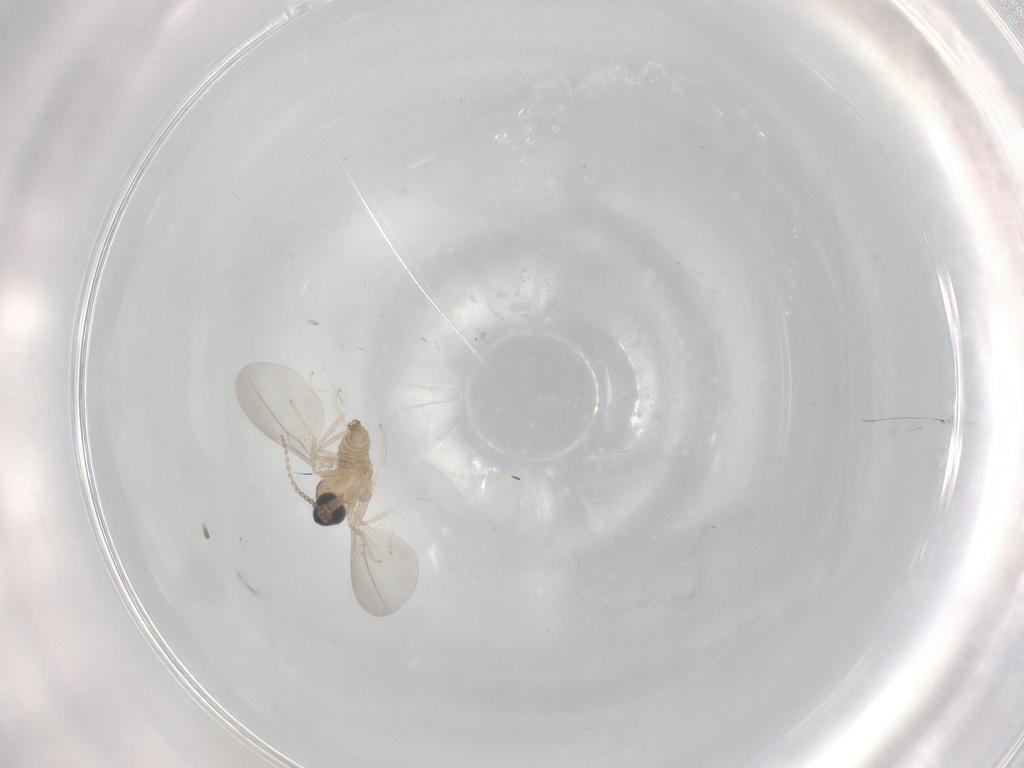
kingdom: Animalia
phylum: Arthropoda
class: Insecta
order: Diptera
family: Cecidomyiidae
